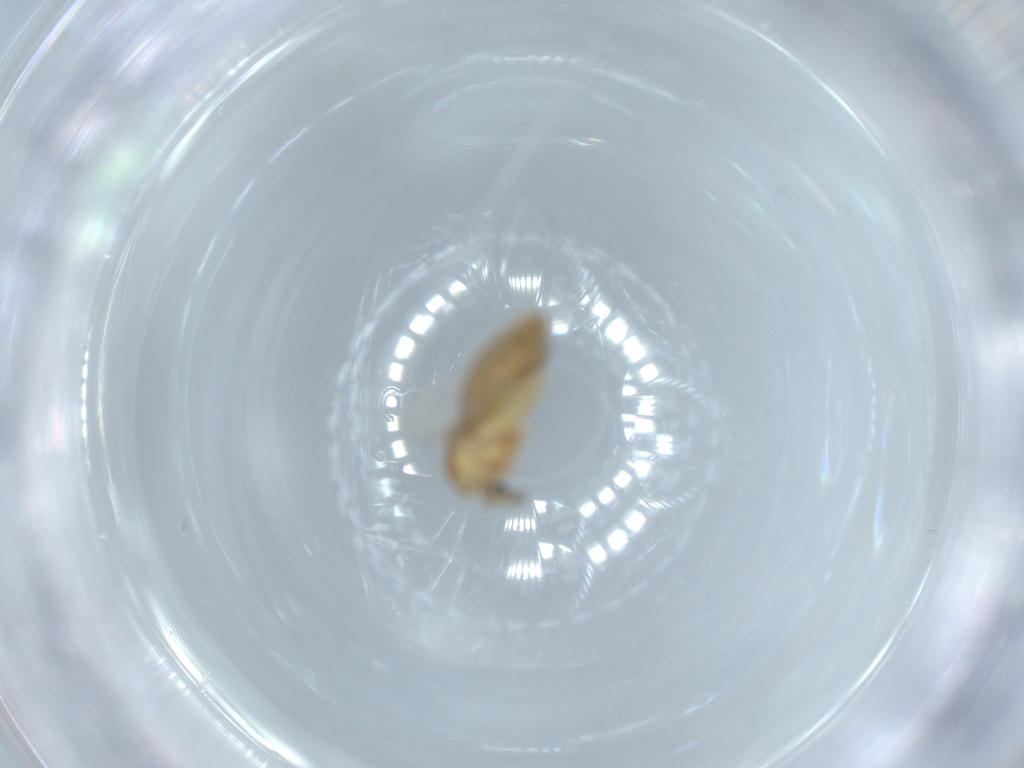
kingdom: Animalia
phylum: Arthropoda
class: Insecta
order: Diptera
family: Chironomidae
